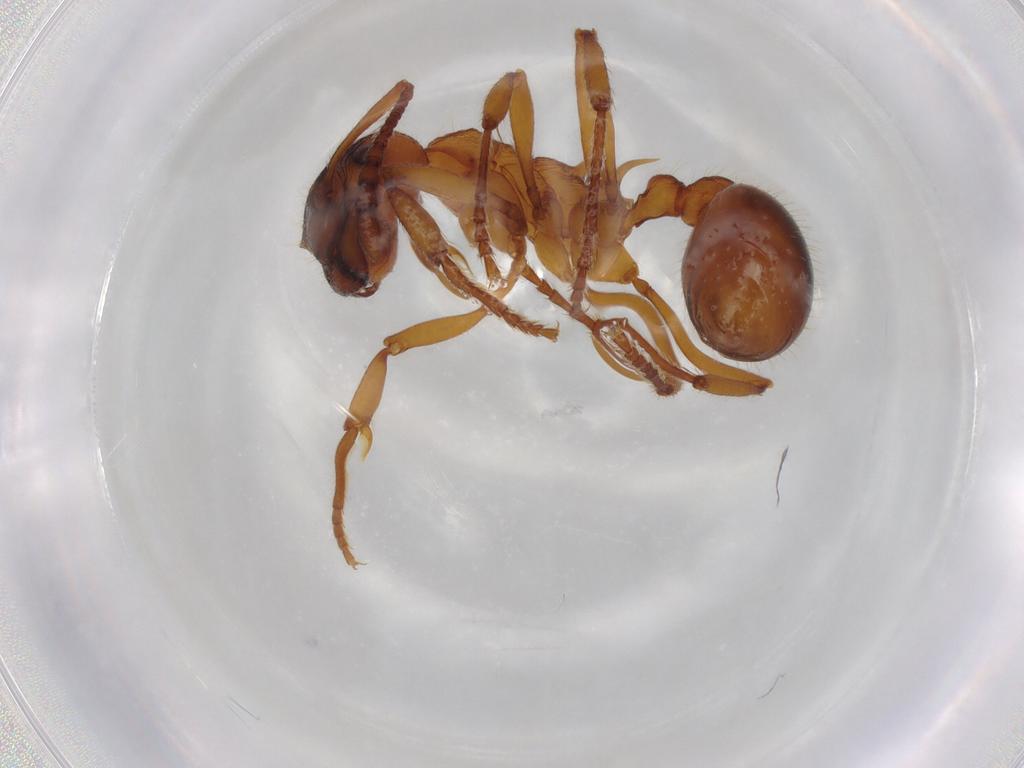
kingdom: Animalia
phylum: Arthropoda
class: Insecta
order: Hymenoptera
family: Formicidae
